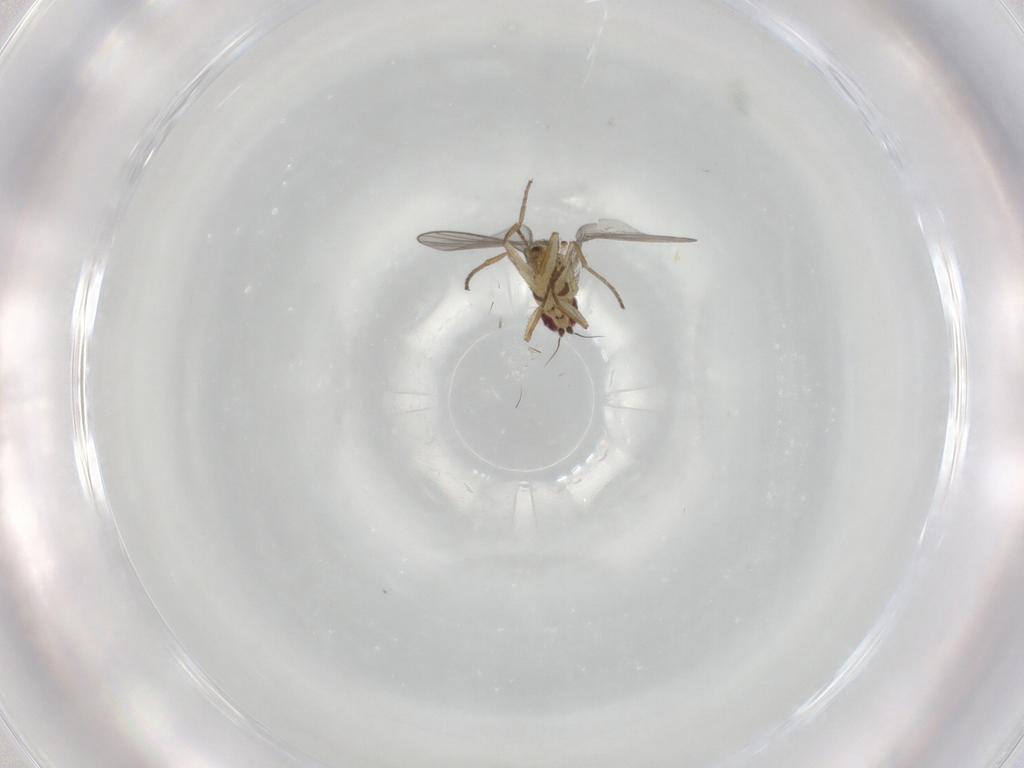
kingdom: Animalia
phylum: Arthropoda
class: Insecta
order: Diptera
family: Agromyzidae
